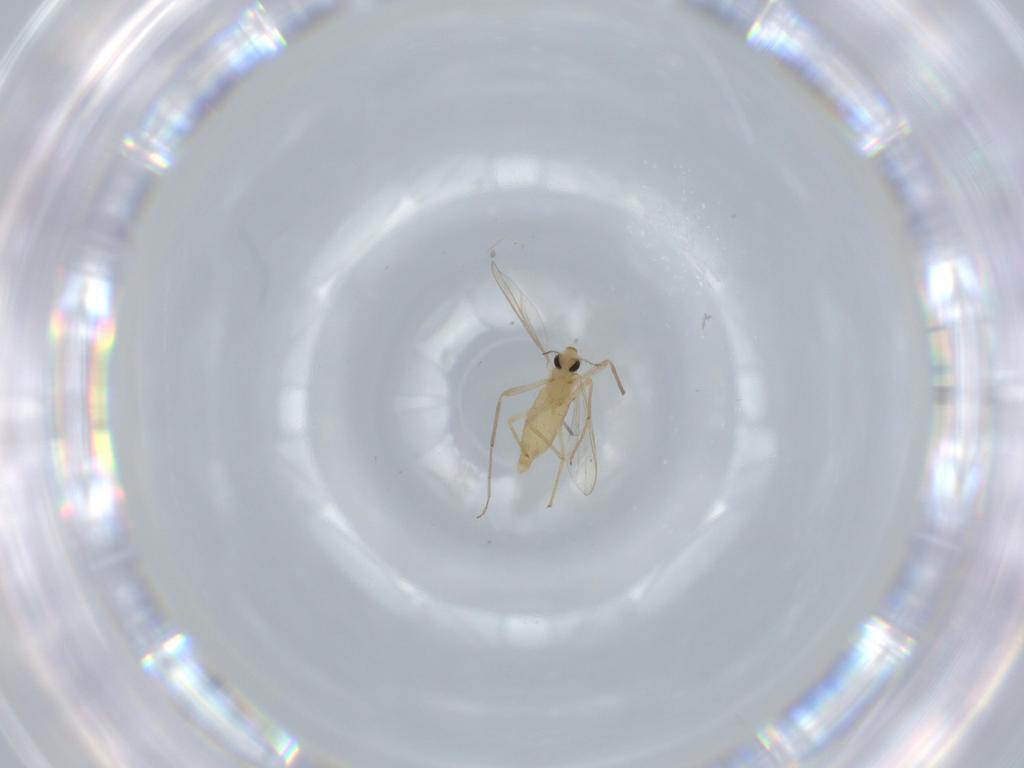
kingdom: Animalia
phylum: Arthropoda
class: Insecta
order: Diptera
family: Chironomidae
